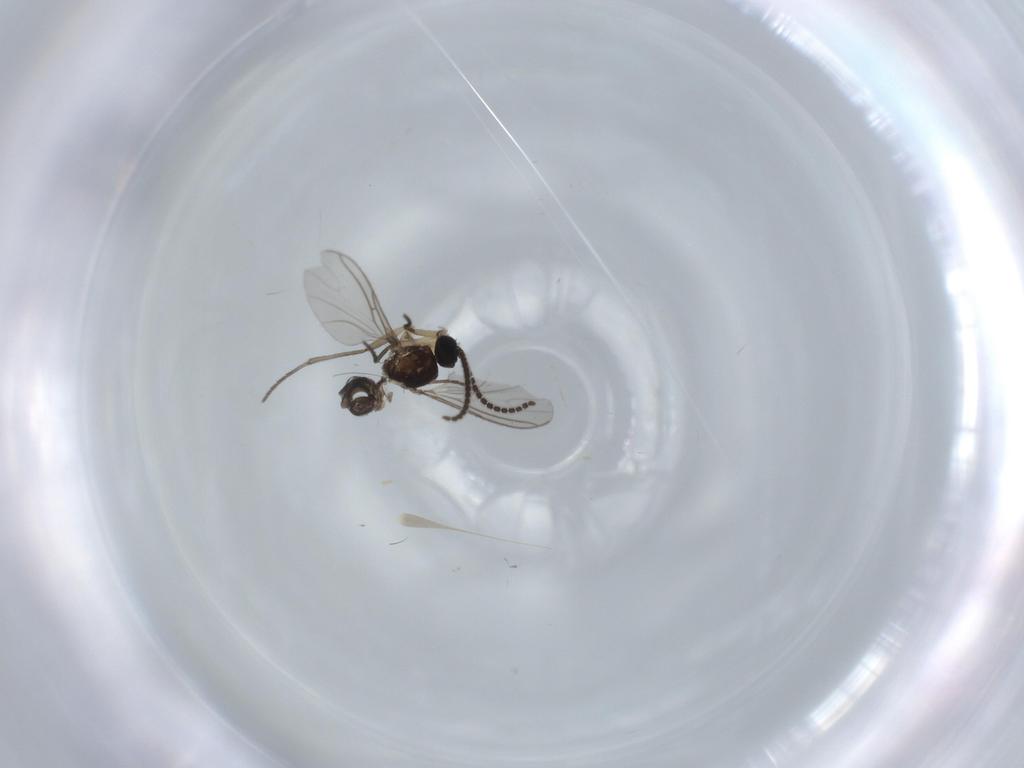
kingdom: Animalia
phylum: Arthropoda
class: Insecta
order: Diptera
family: Sciaridae
